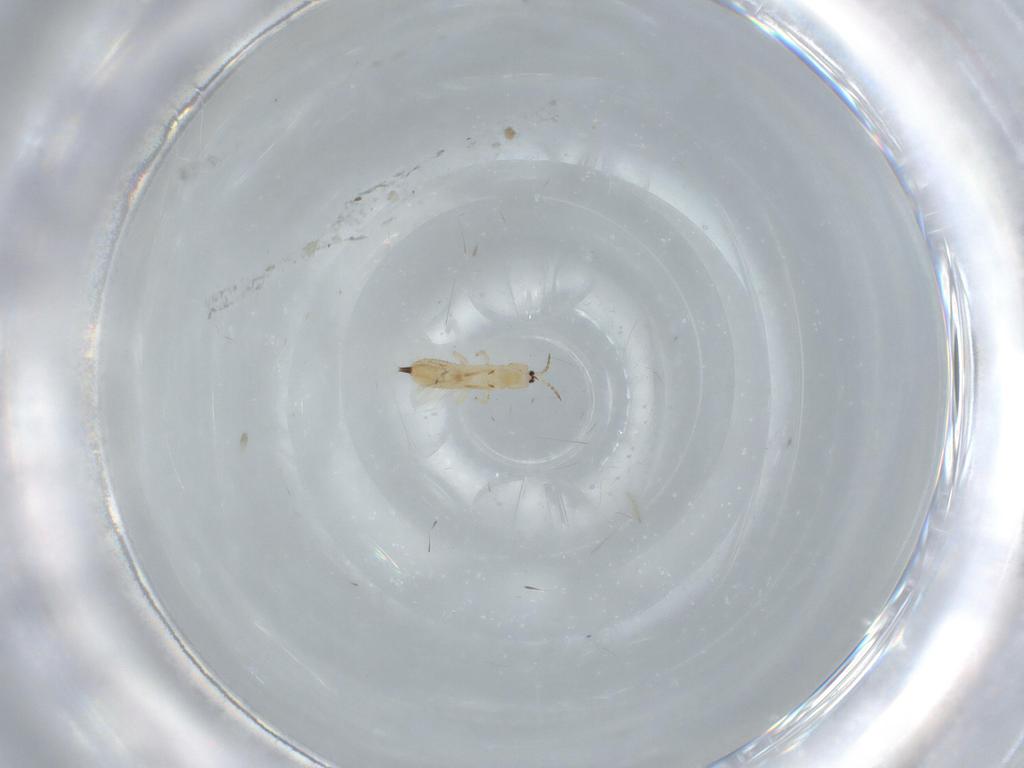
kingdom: Animalia
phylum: Arthropoda
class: Insecta
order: Thysanoptera
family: Phlaeothripidae
